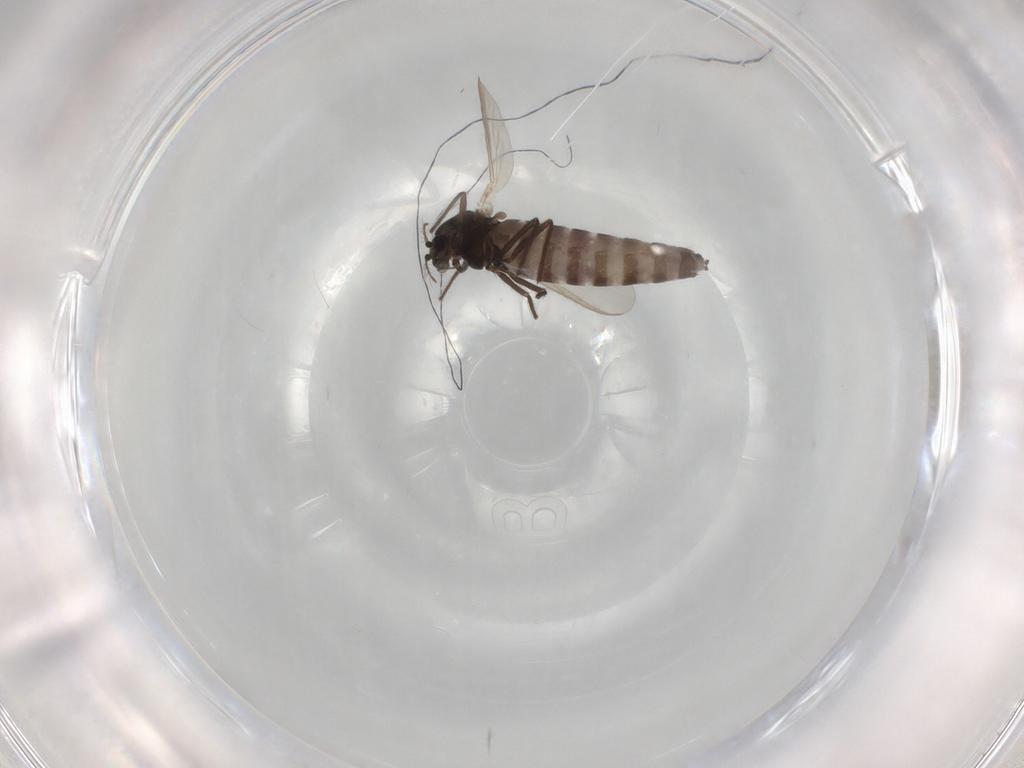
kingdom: Animalia
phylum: Arthropoda
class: Insecta
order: Diptera
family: Chironomidae
